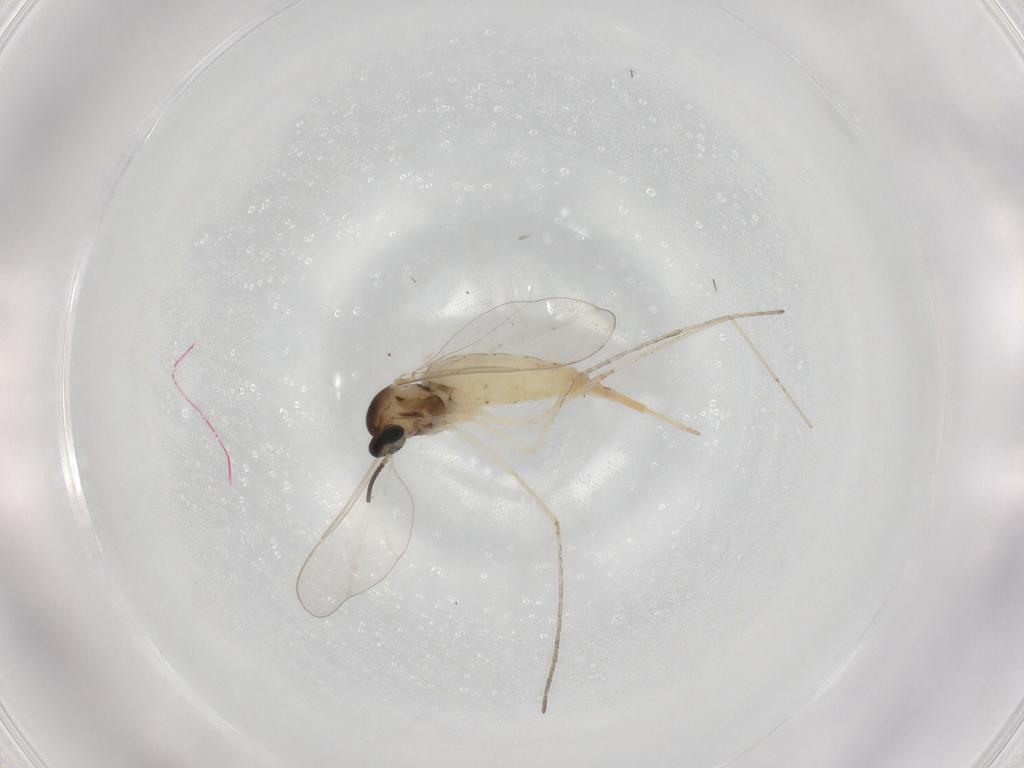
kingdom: Animalia
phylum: Arthropoda
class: Insecta
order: Diptera
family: Cecidomyiidae
